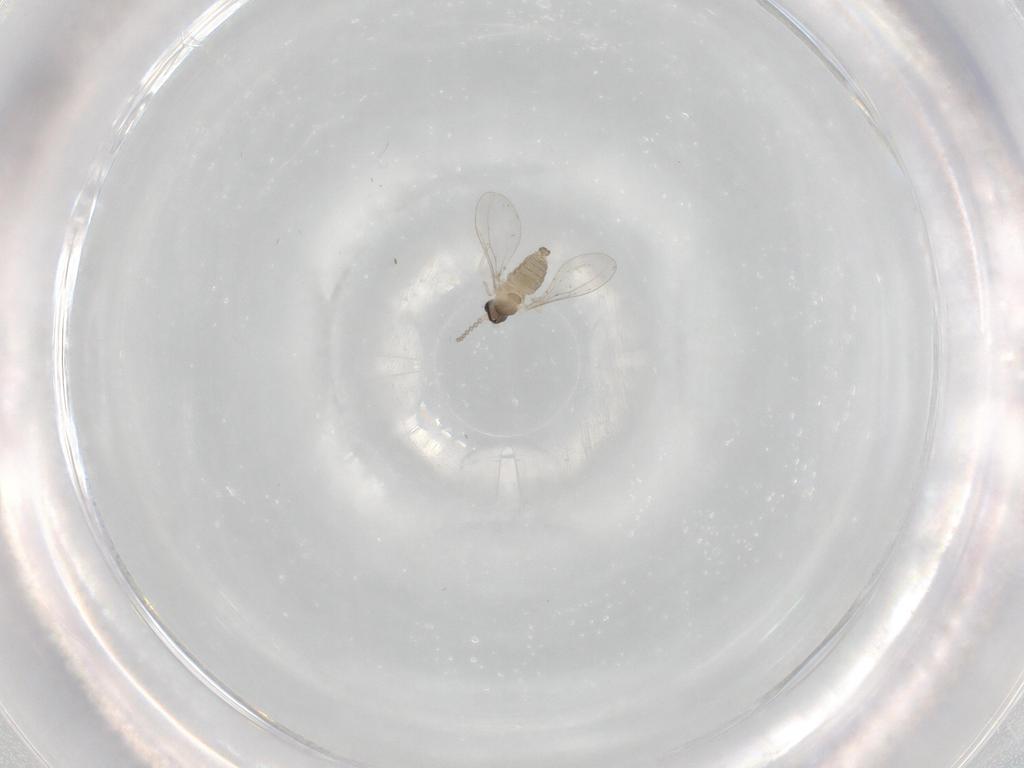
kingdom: Animalia
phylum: Arthropoda
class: Insecta
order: Diptera
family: Cecidomyiidae
